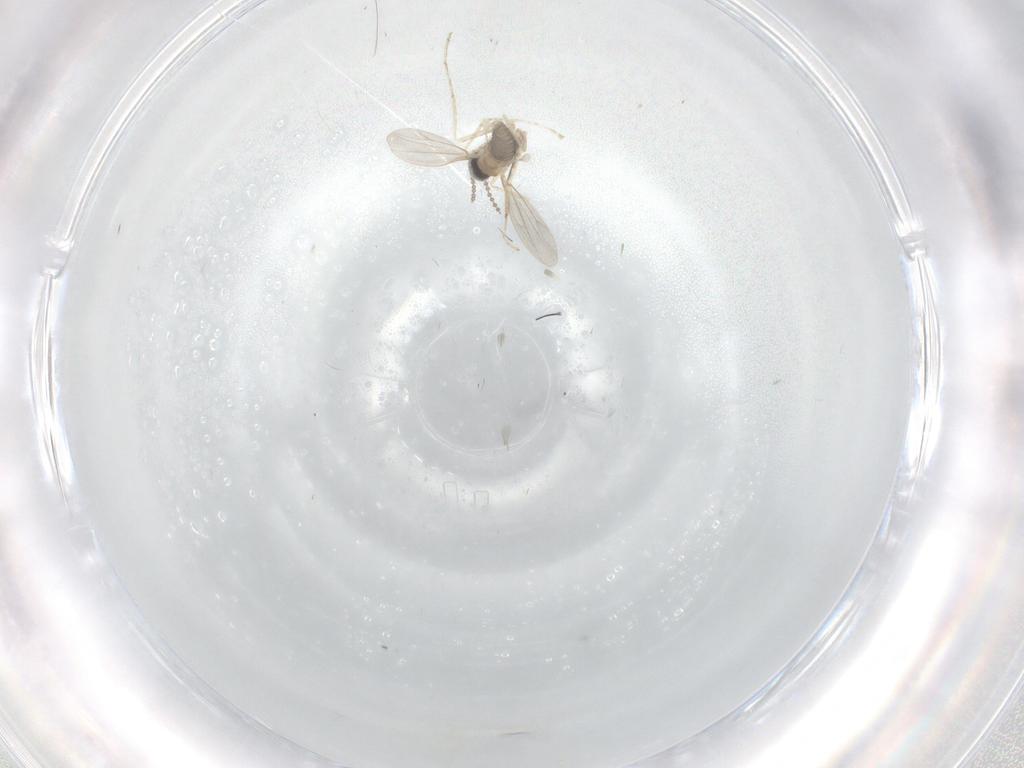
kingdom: Animalia
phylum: Arthropoda
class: Insecta
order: Diptera
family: Cecidomyiidae
